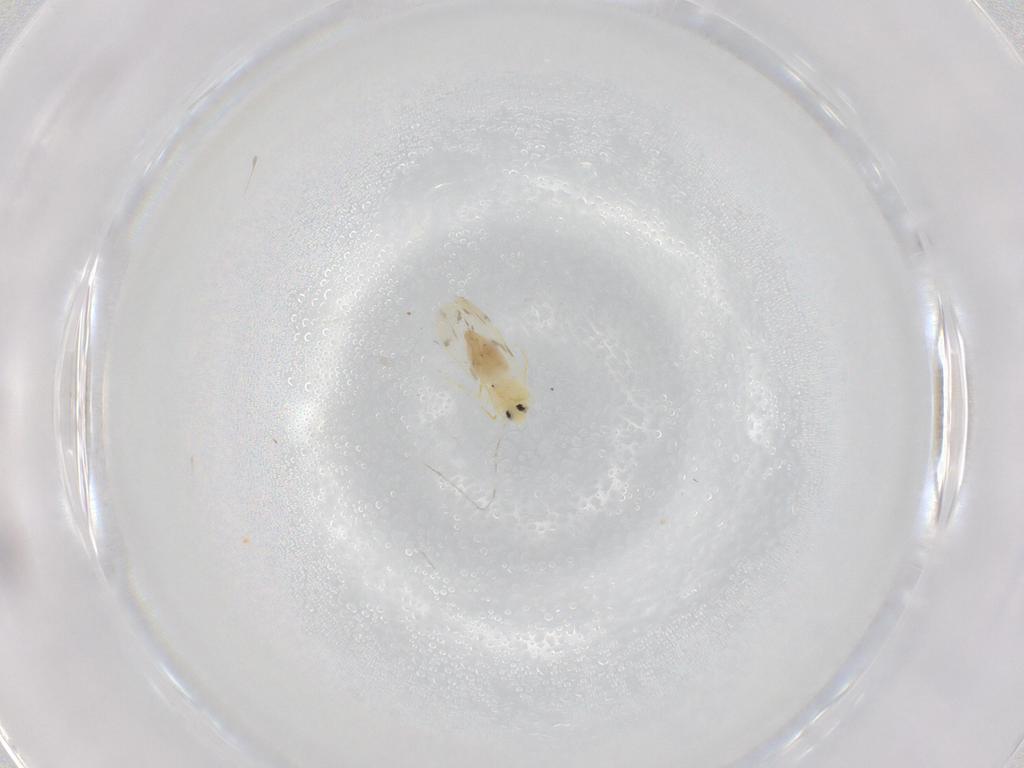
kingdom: Animalia
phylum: Arthropoda
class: Insecta
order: Hemiptera
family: Aleyrodidae
